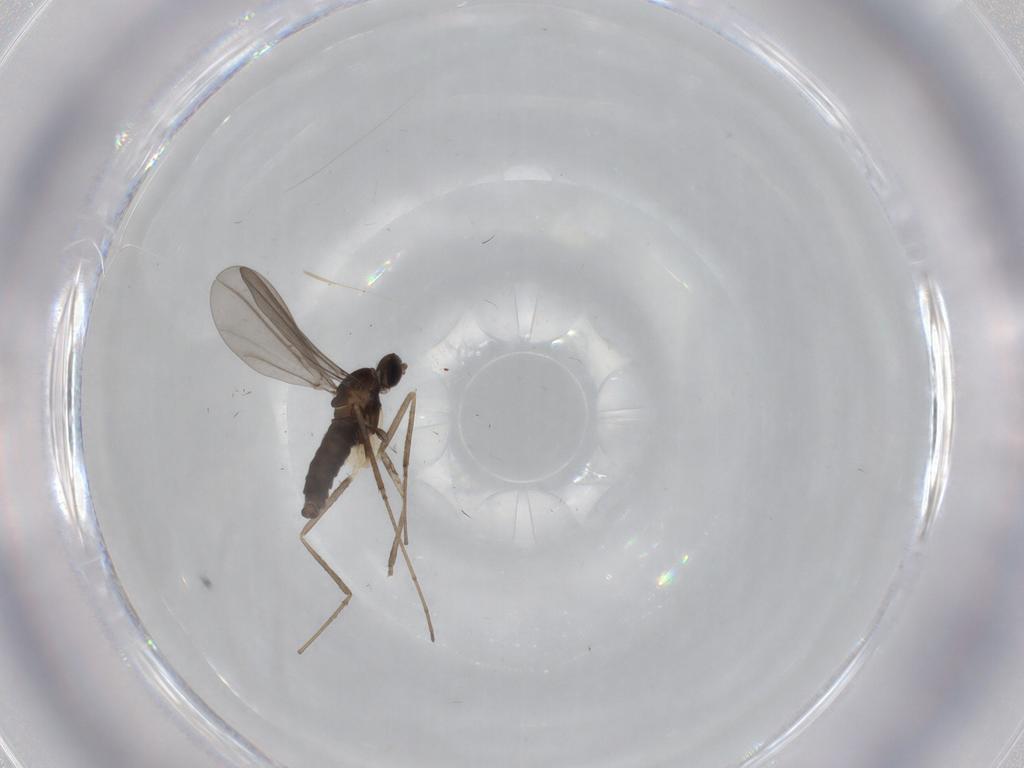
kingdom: Animalia
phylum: Arthropoda
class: Insecta
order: Diptera
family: Cecidomyiidae
